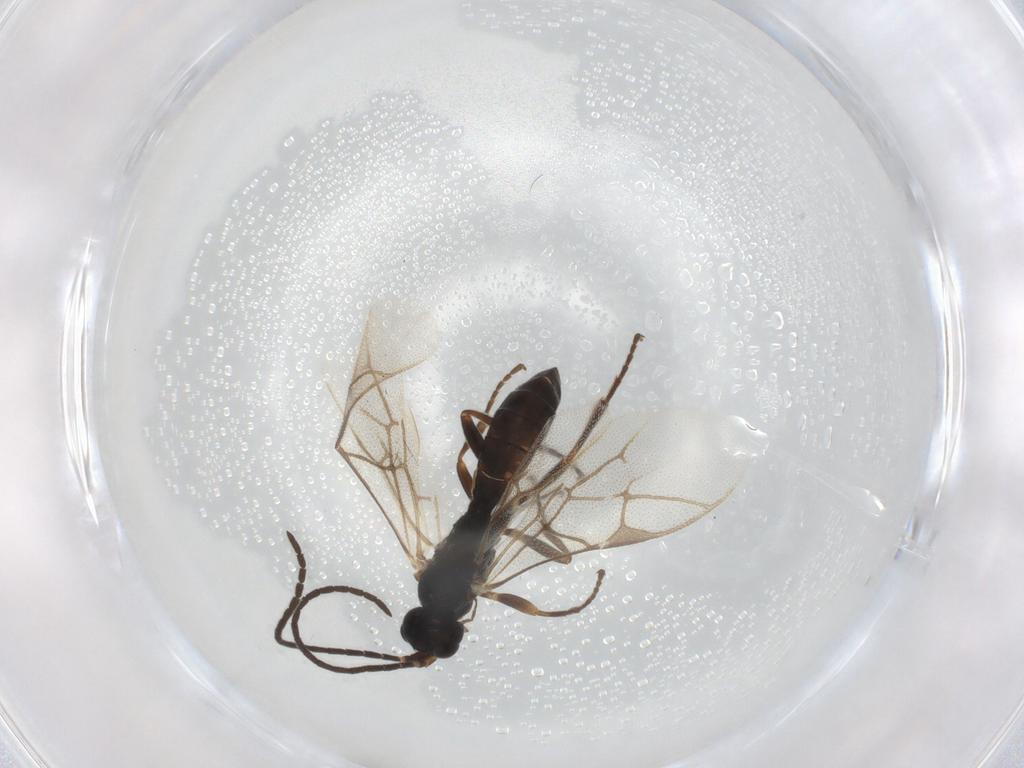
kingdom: Animalia
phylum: Arthropoda
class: Insecta
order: Hymenoptera
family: Ichneumonidae
